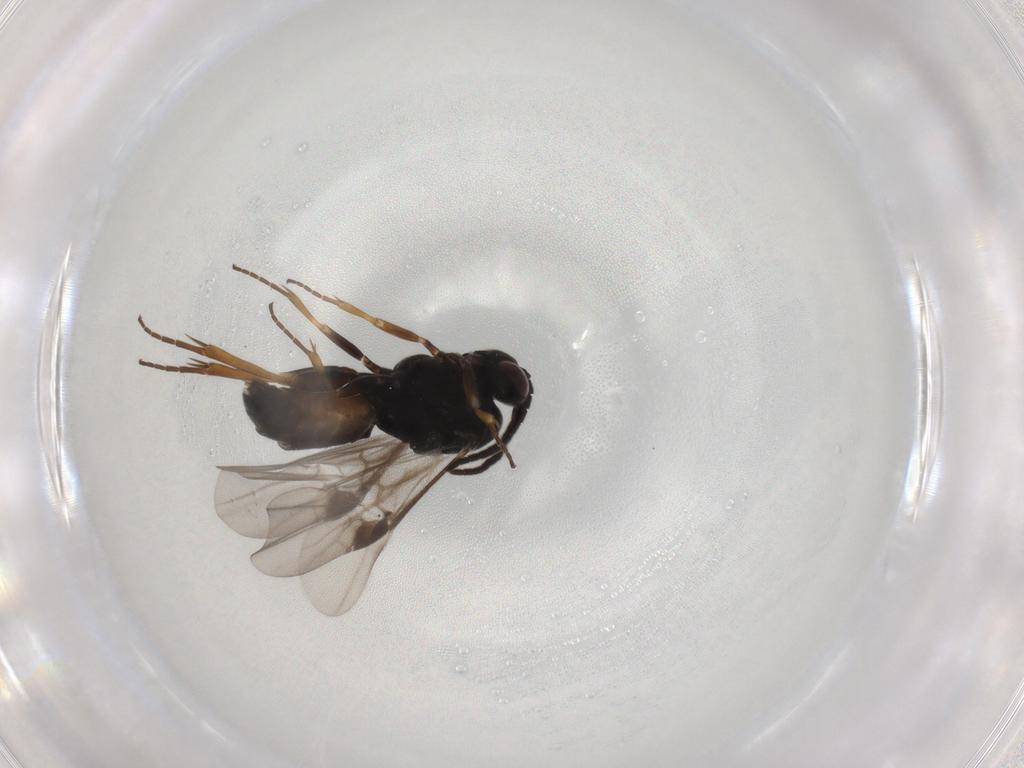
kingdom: Animalia
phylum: Arthropoda
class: Insecta
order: Hymenoptera
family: Braconidae
